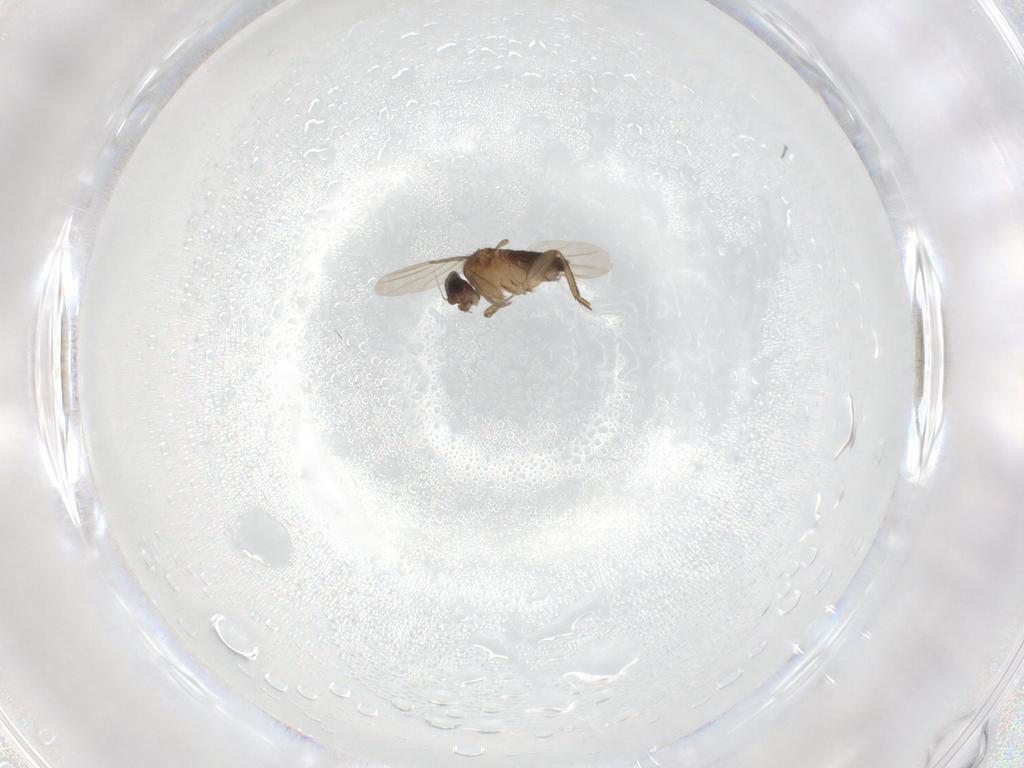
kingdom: Animalia
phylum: Arthropoda
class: Insecta
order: Diptera
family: Phoridae
